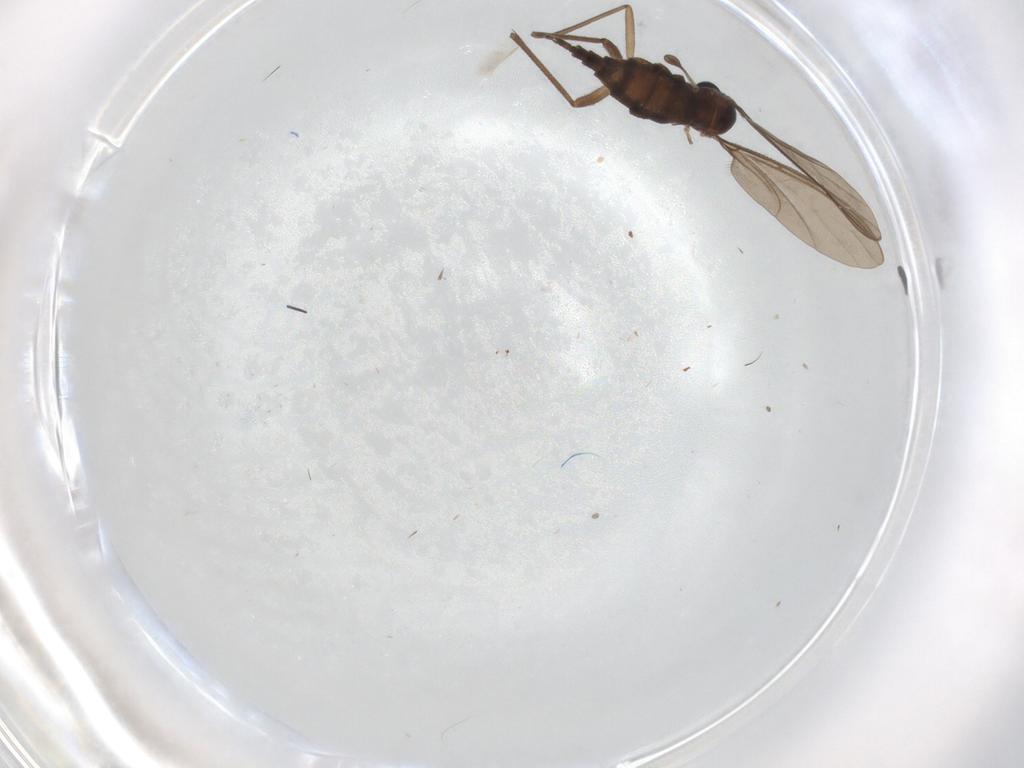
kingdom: Animalia
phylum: Arthropoda
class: Insecta
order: Diptera
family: Sciaridae
